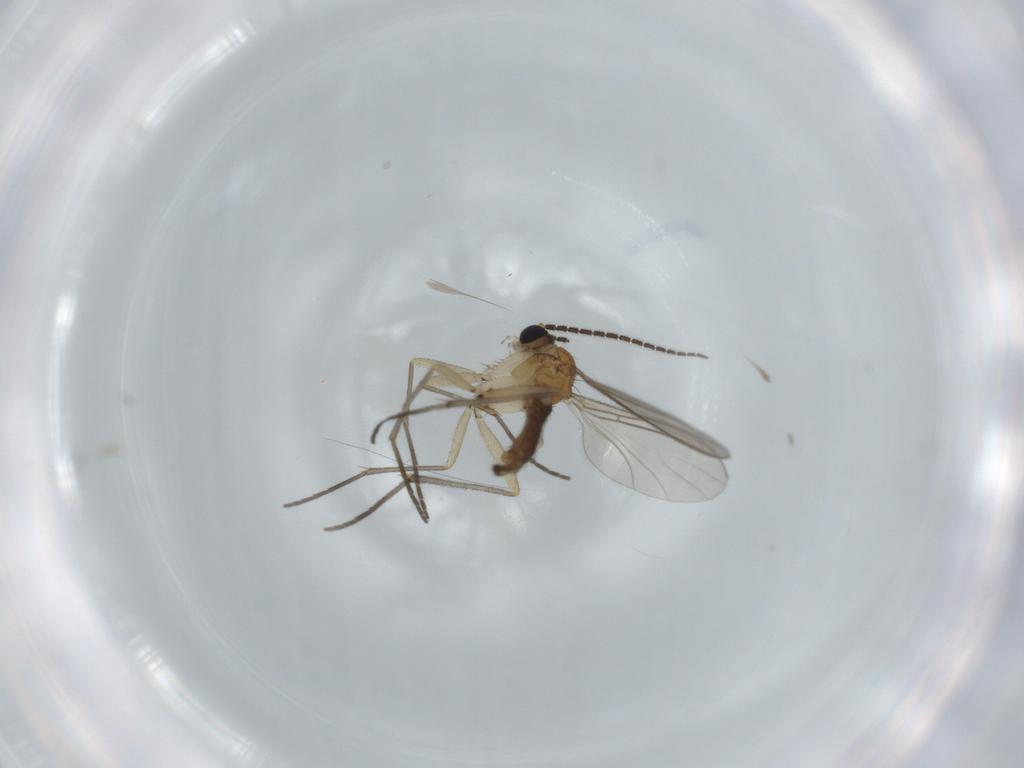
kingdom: Animalia
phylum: Arthropoda
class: Insecta
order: Diptera
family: Sciaridae
